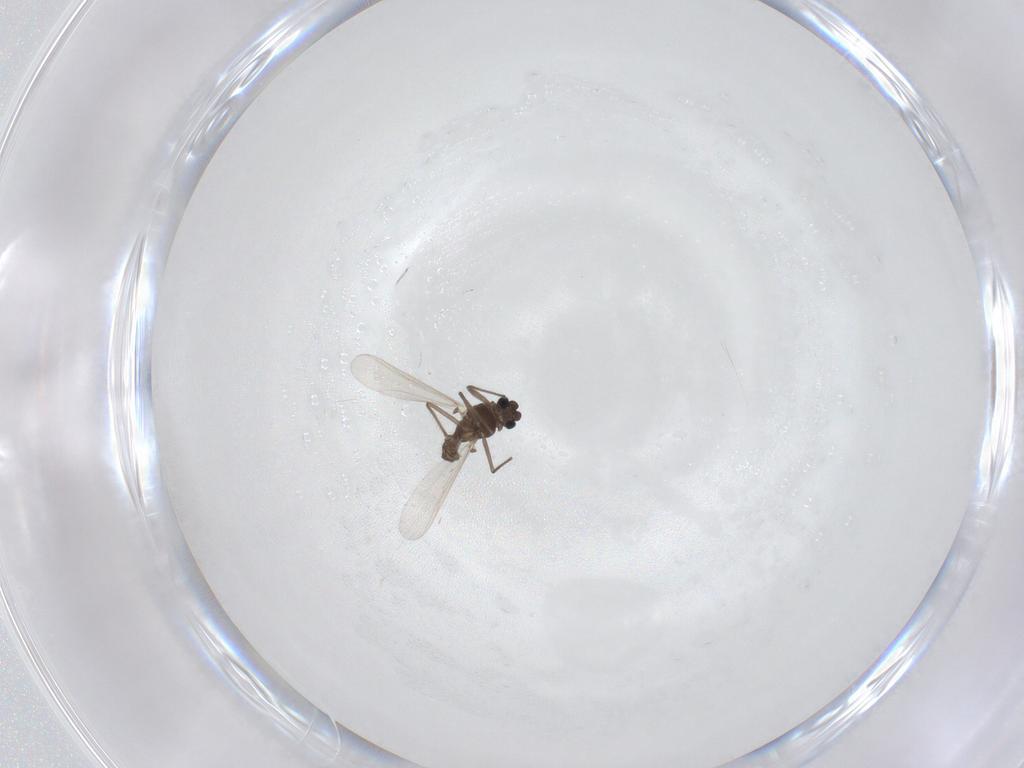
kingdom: Animalia
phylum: Arthropoda
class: Insecta
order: Diptera
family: Chironomidae
